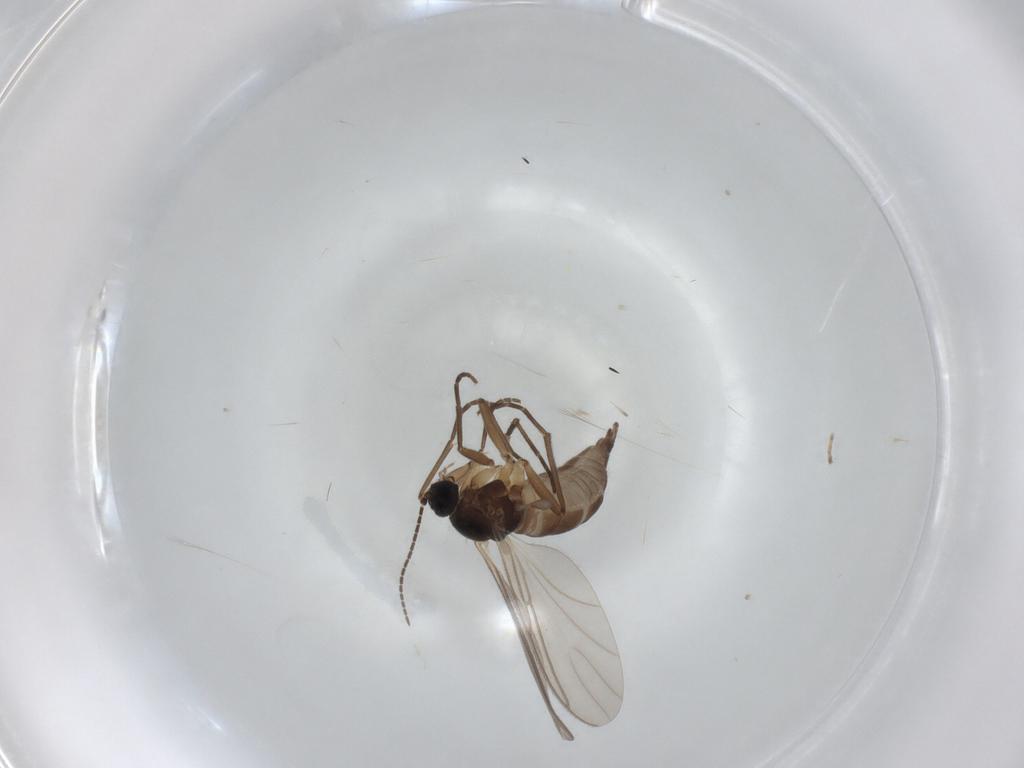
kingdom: Animalia
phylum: Arthropoda
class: Insecta
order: Diptera
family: Sciaridae
